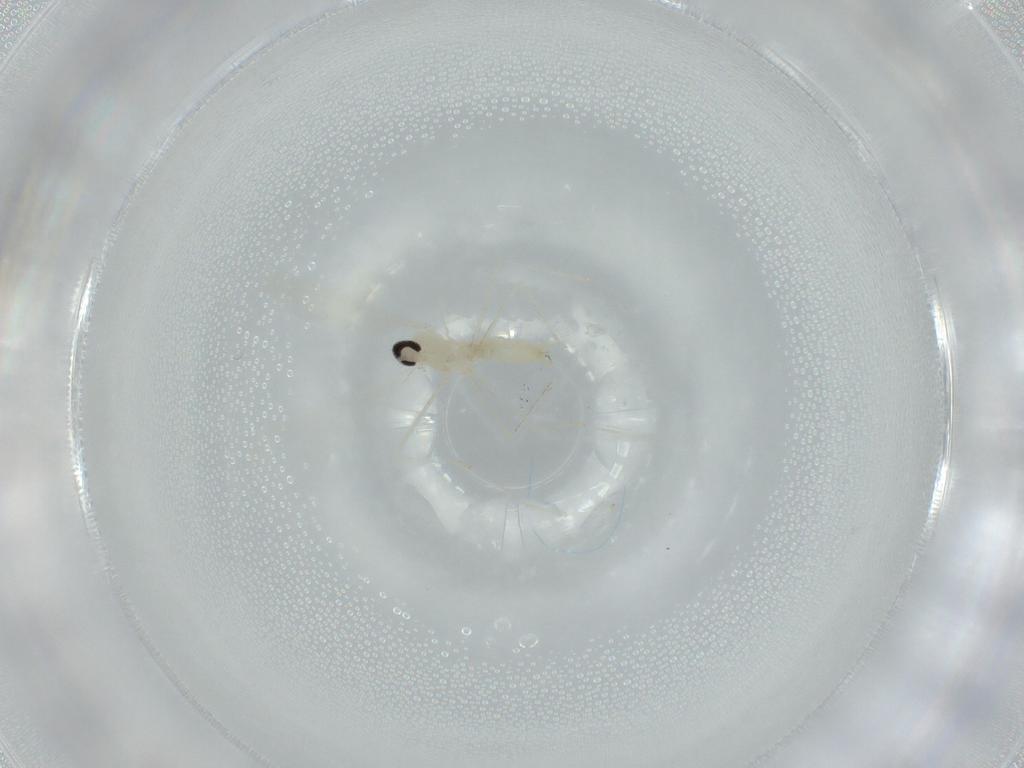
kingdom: Animalia
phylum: Arthropoda
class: Insecta
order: Diptera
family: Cecidomyiidae
